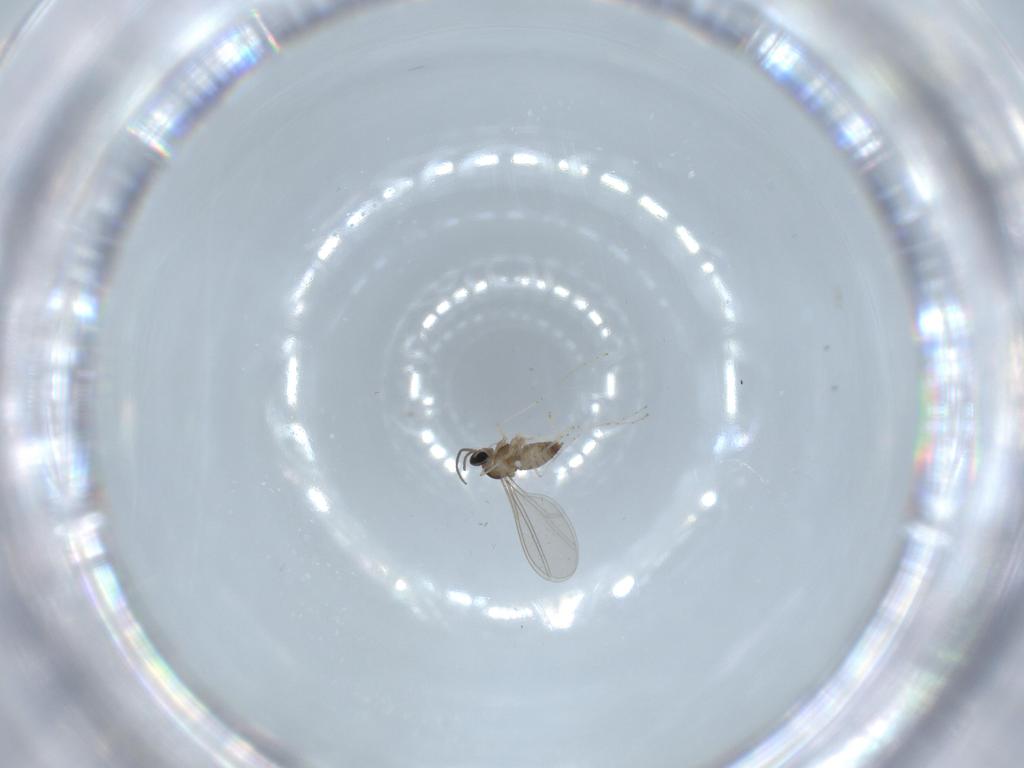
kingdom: Animalia
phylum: Arthropoda
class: Insecta
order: Diptera
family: Cecidomyiidae
